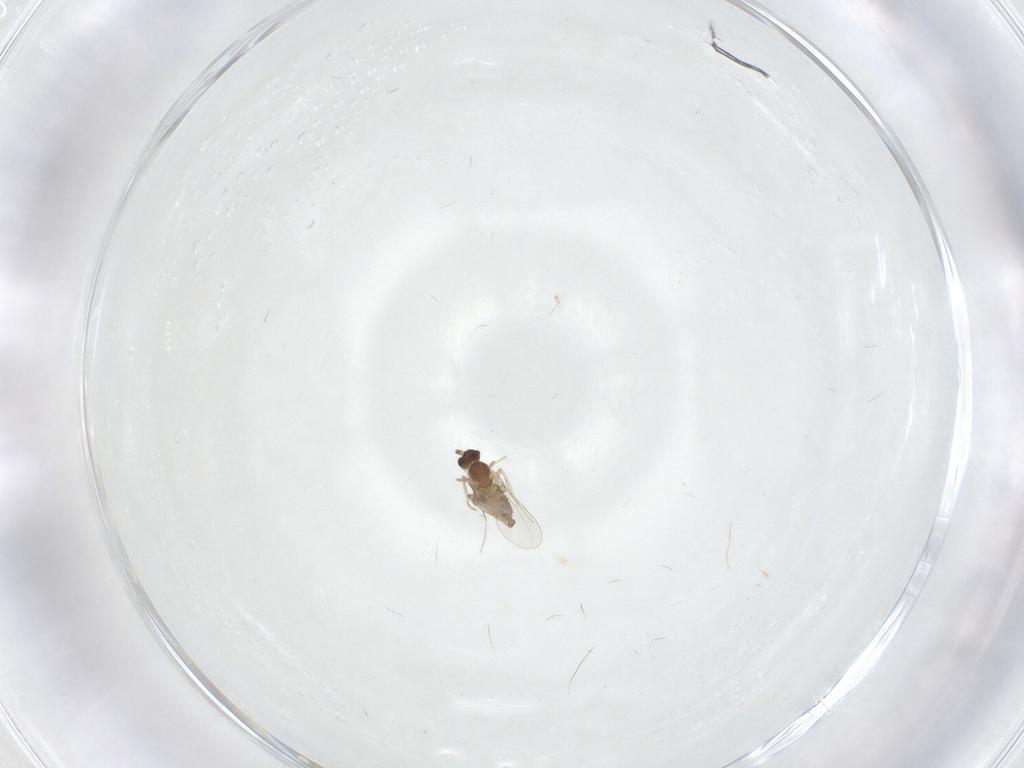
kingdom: Animalia
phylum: Arthropoda
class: Insecta
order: Diptera
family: Cecidomyiidae
